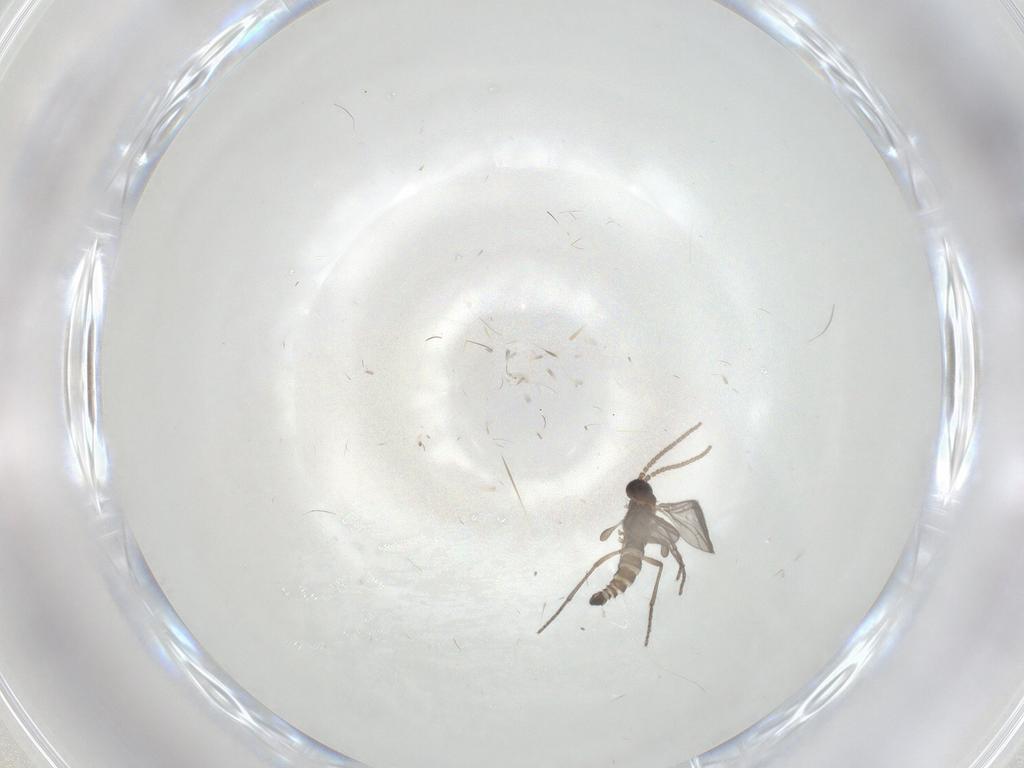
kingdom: Animalia
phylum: Arthropoda
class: Insecta
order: Diptera
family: Sciaridae
